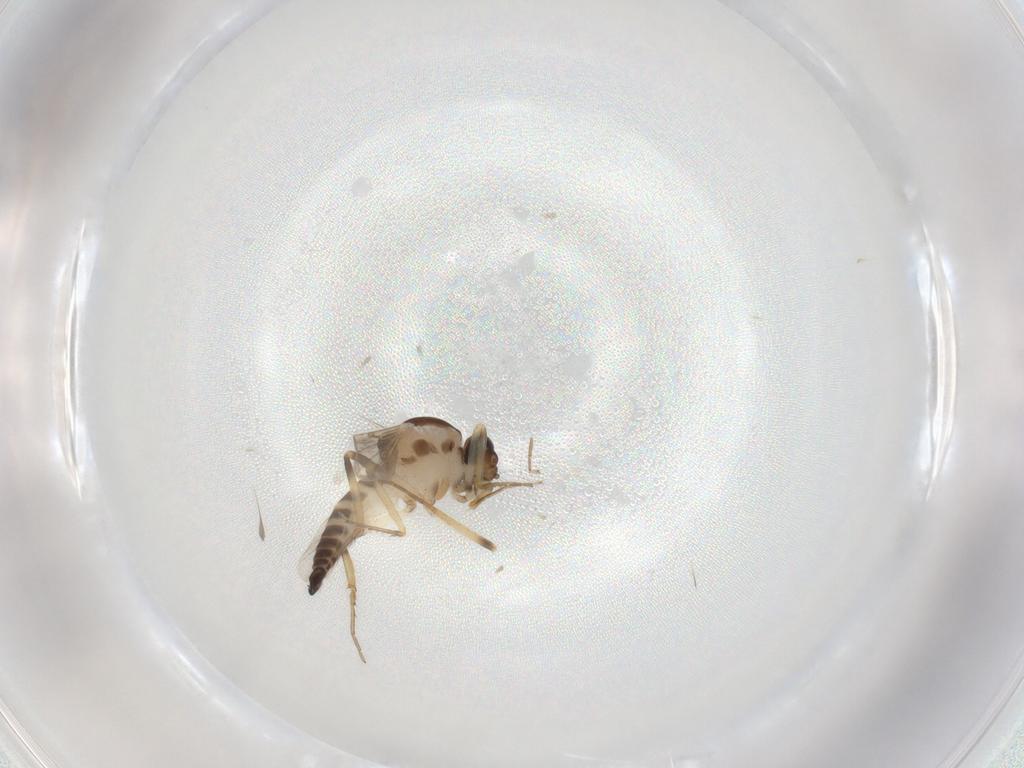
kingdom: Animalia
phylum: Arthropoda
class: Insecta
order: Diptera
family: Ceratopogonidae
